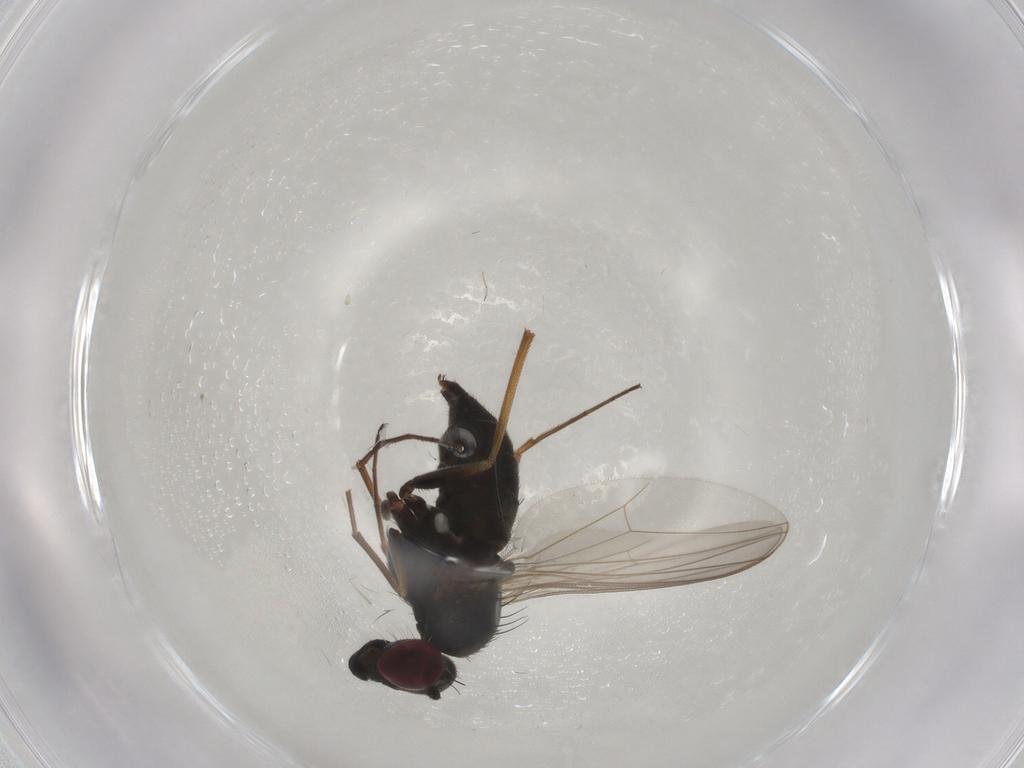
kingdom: Animalia
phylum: Arthropoda
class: Insecta
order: Diptera
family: Dolichopodidae
